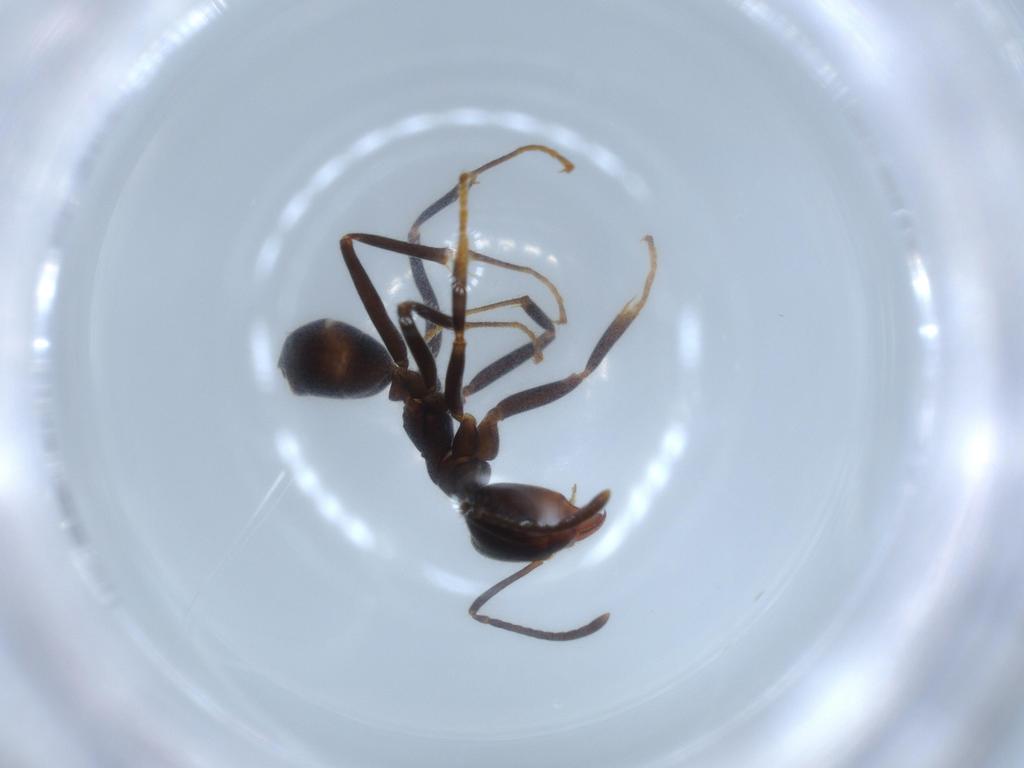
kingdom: Animalia
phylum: Arthropoda
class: Insecta
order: Hymenoptera
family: Formicidae
